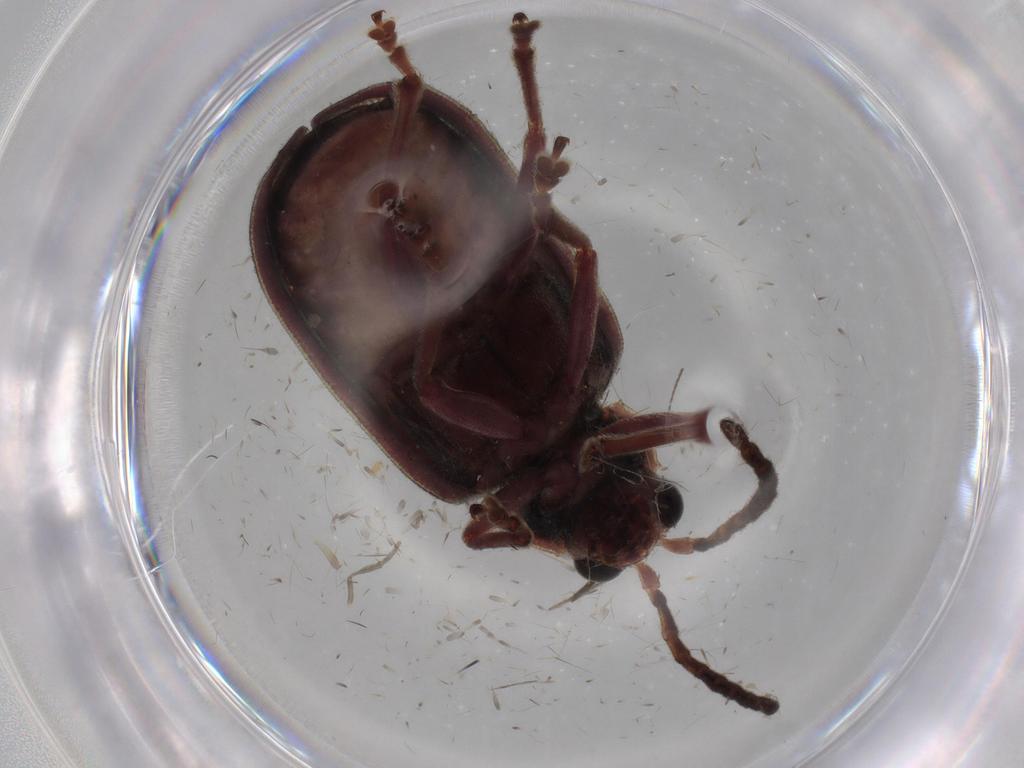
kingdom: Animalia
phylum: Arthropoda
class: Insecta
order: Coleoptera
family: Chrysomelidae
